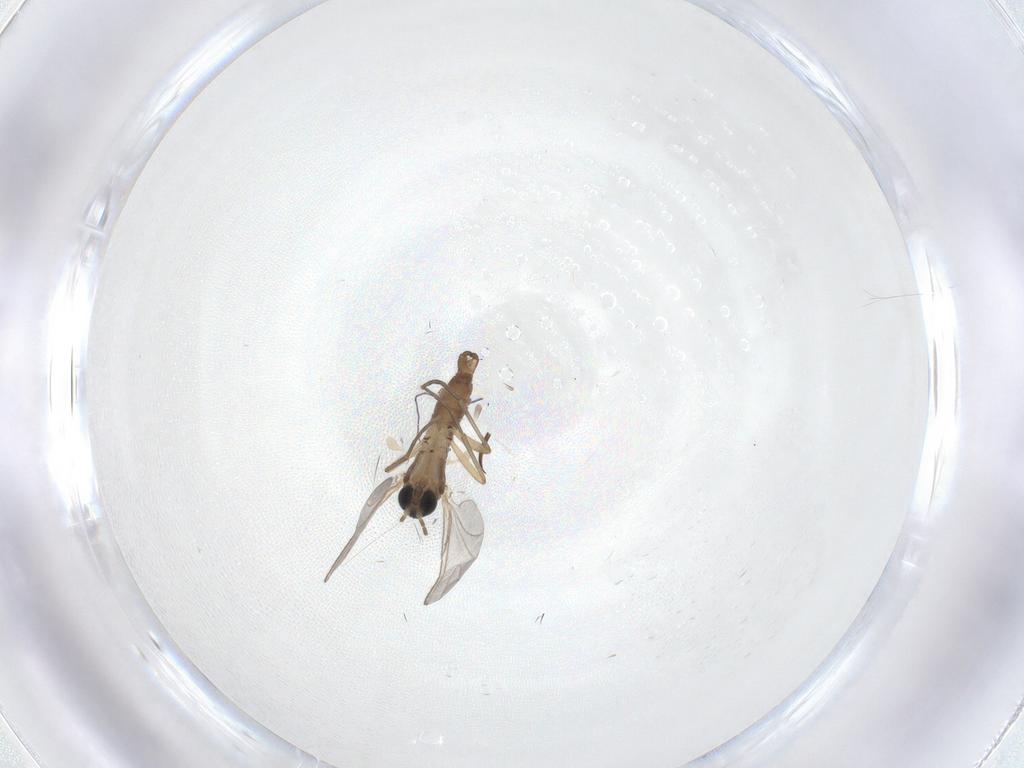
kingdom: Animalia
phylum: Arthropoda
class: Insecta
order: Diptera
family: Sciaridae
